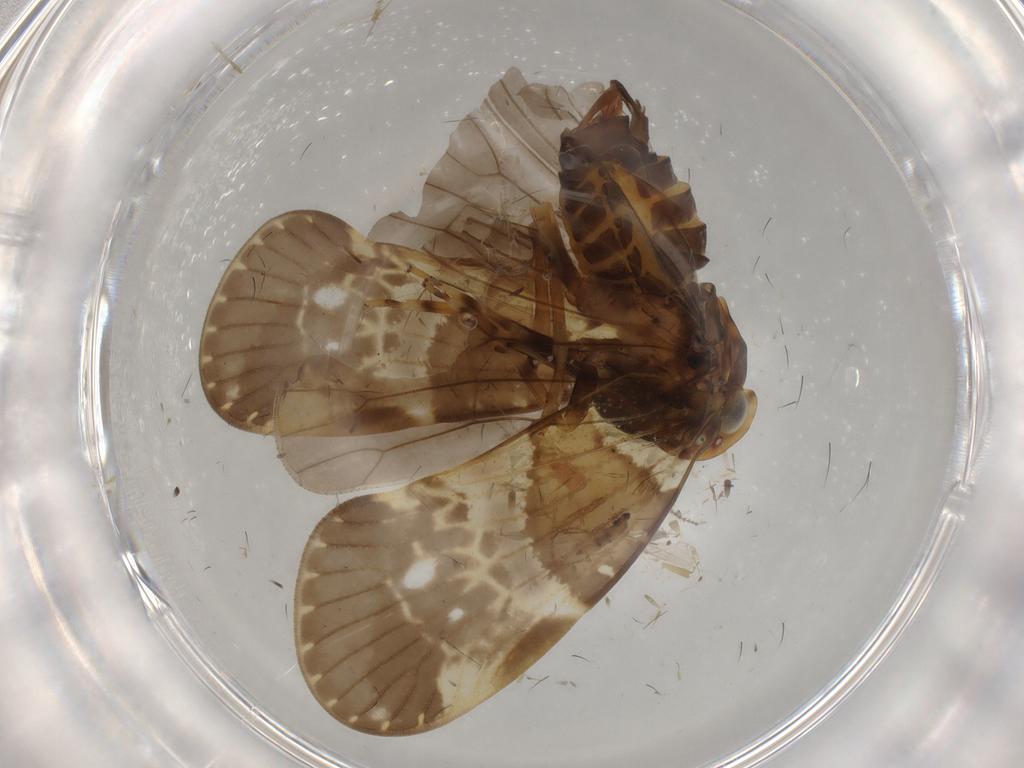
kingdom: Animalia
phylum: Arthropoda
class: Insecta
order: Hemiptera
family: Cixiidae
